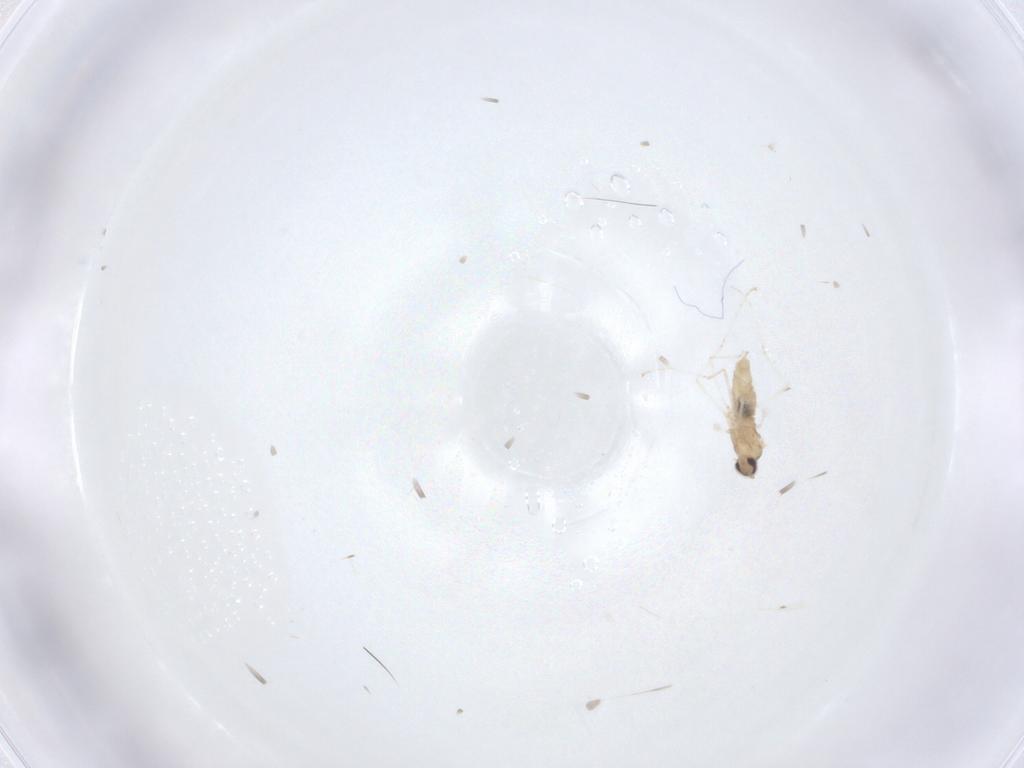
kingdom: Animalia
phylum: Arthropoda
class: Insecta
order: Diptera
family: Cecidomyiidae
